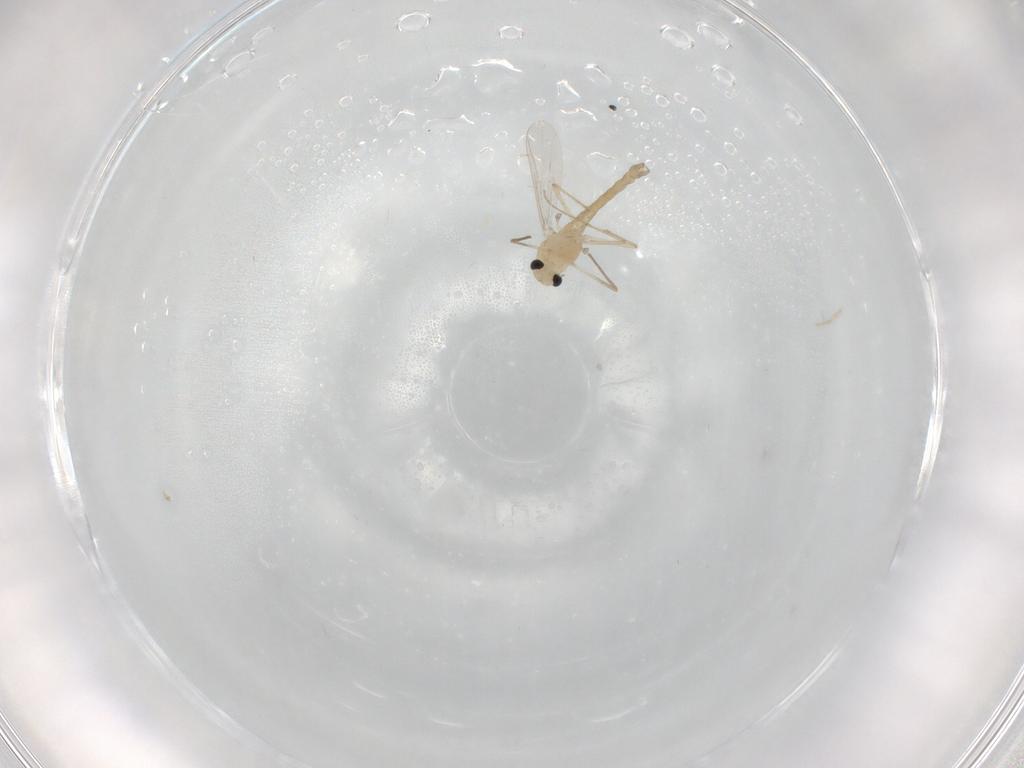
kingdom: Animalia
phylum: Arthropoda
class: Insecta
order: Diptera
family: Chironomidae
